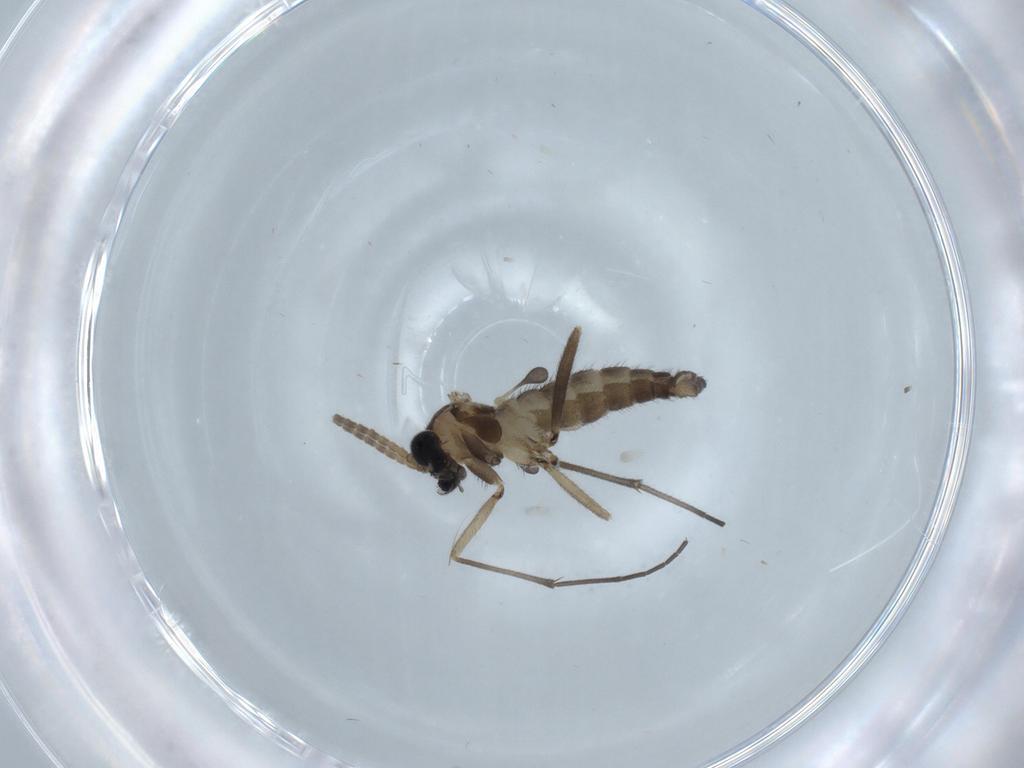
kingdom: Animalia
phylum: Arthropoda
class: Insecta
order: Diptera
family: Sciaridae
